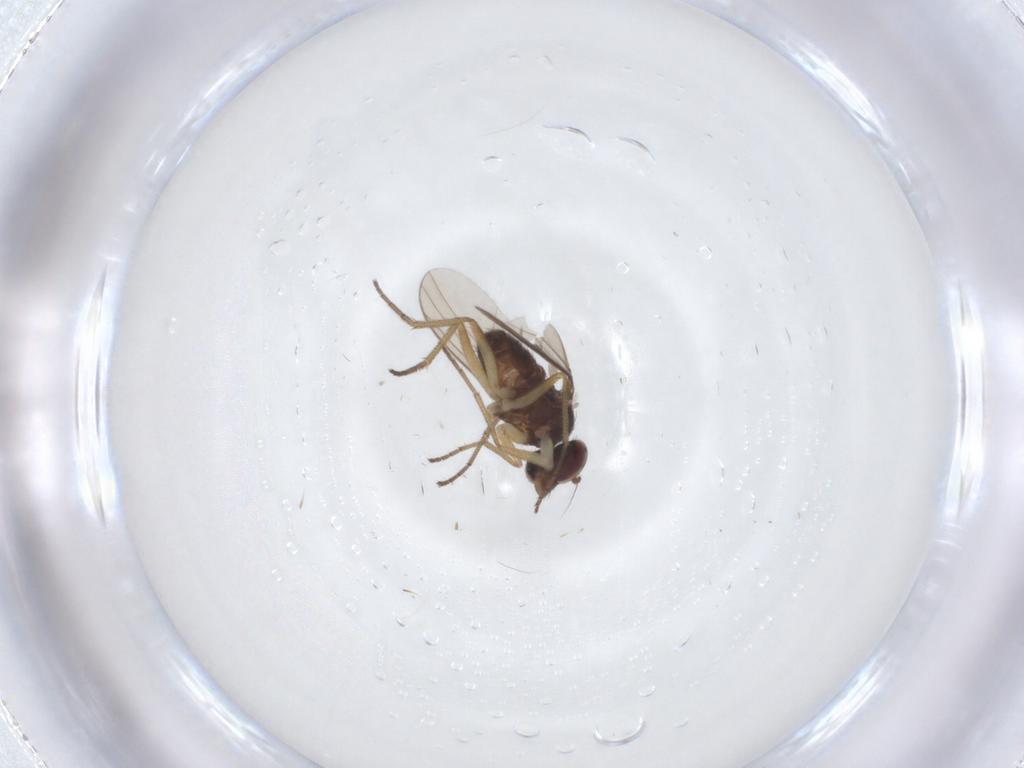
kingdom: Animalia
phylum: Arthropoda
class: Insecta
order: Diptera
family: Dolichopodidae
